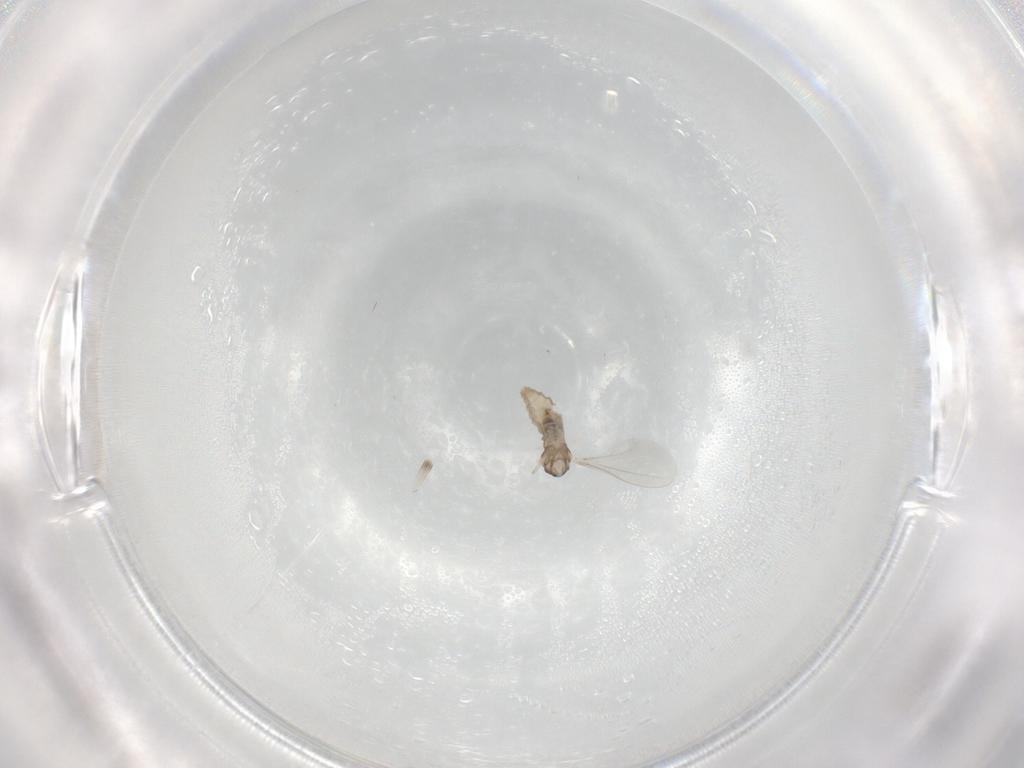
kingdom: Animalia
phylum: Arthropoda
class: Insecta
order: Diptera
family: Cecidomyiidae
